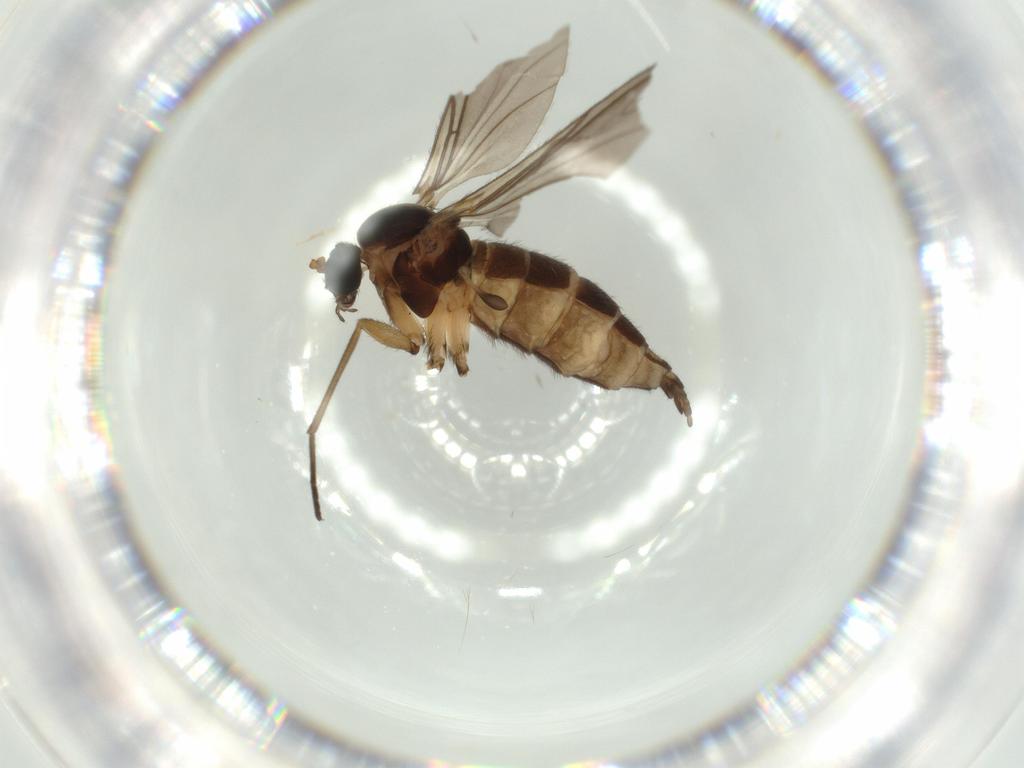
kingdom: Animalia
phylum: Arthropoda
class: Insecta
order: Diptera
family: Sciaridae
